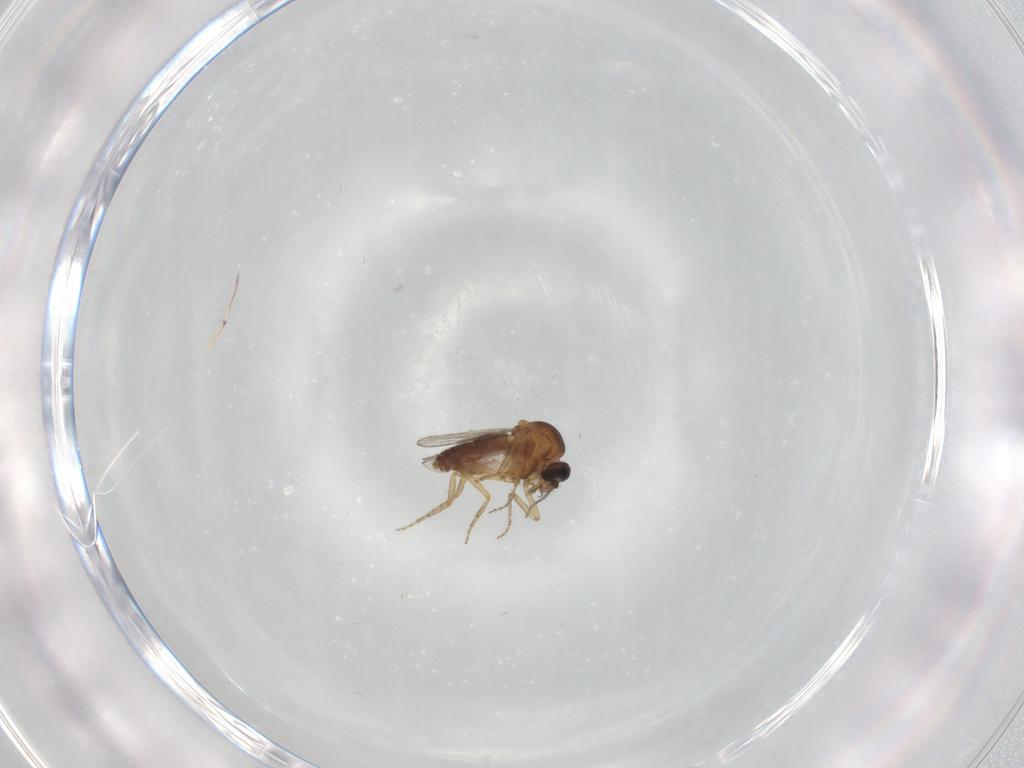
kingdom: Animalia
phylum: Arthropoda
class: Insecta
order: Diptera
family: Ceratopogonidae
